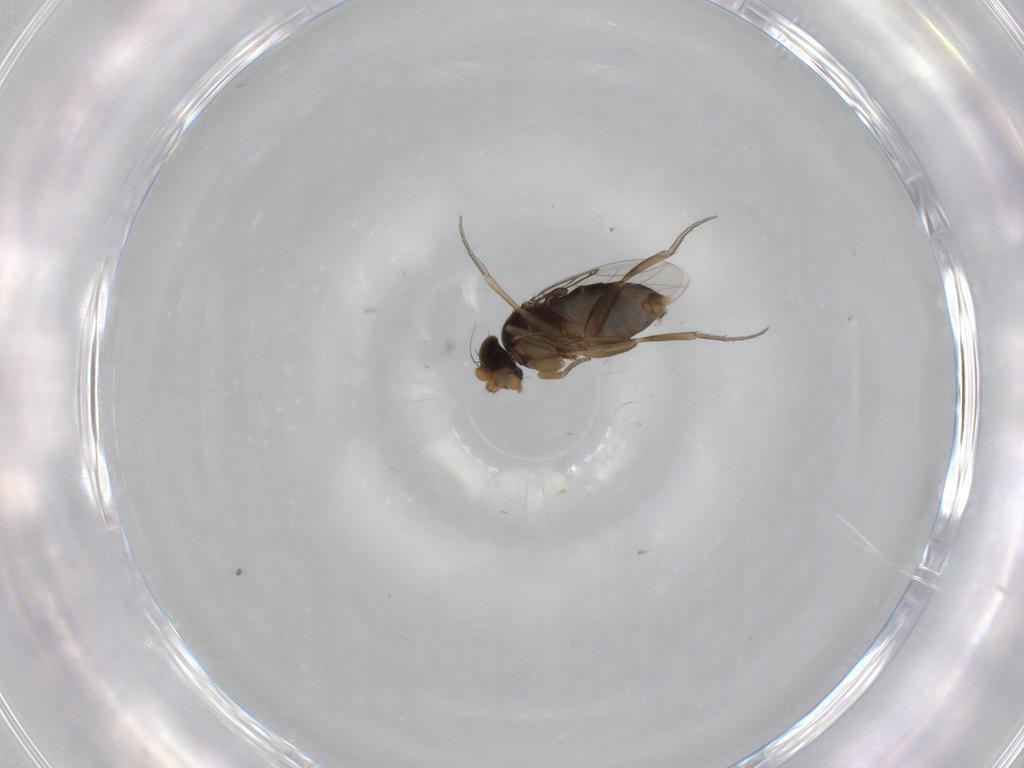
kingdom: Animalia
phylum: Arthropoda
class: Insecta
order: Diptera
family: Phoridae
